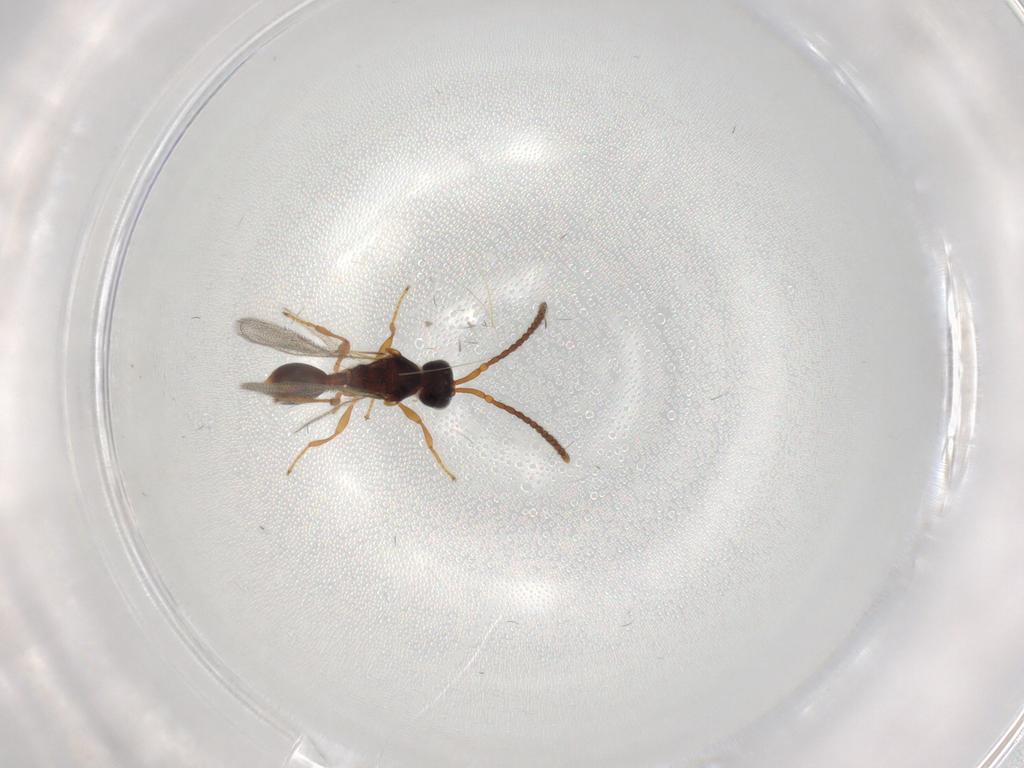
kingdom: Animalia
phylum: Arthropoda
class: Insecta
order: Hymenoptera
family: Diapriidae
